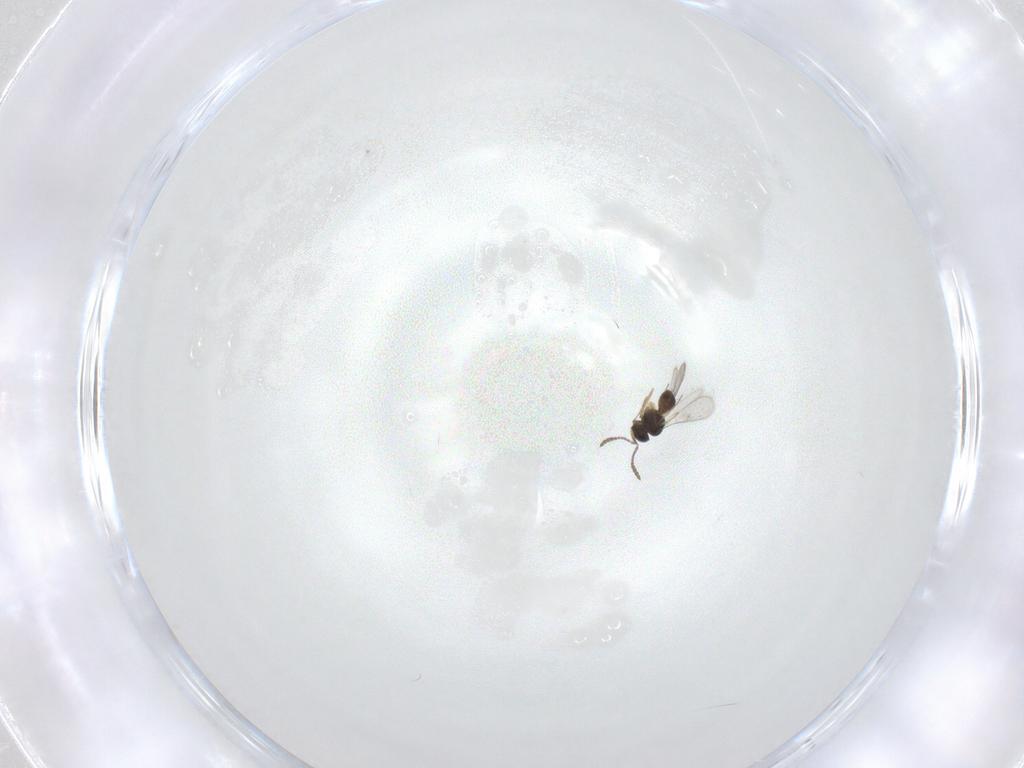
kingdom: Animalia
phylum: Arthropoda
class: Insecta
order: Hymenoptera
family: Scelionidae
